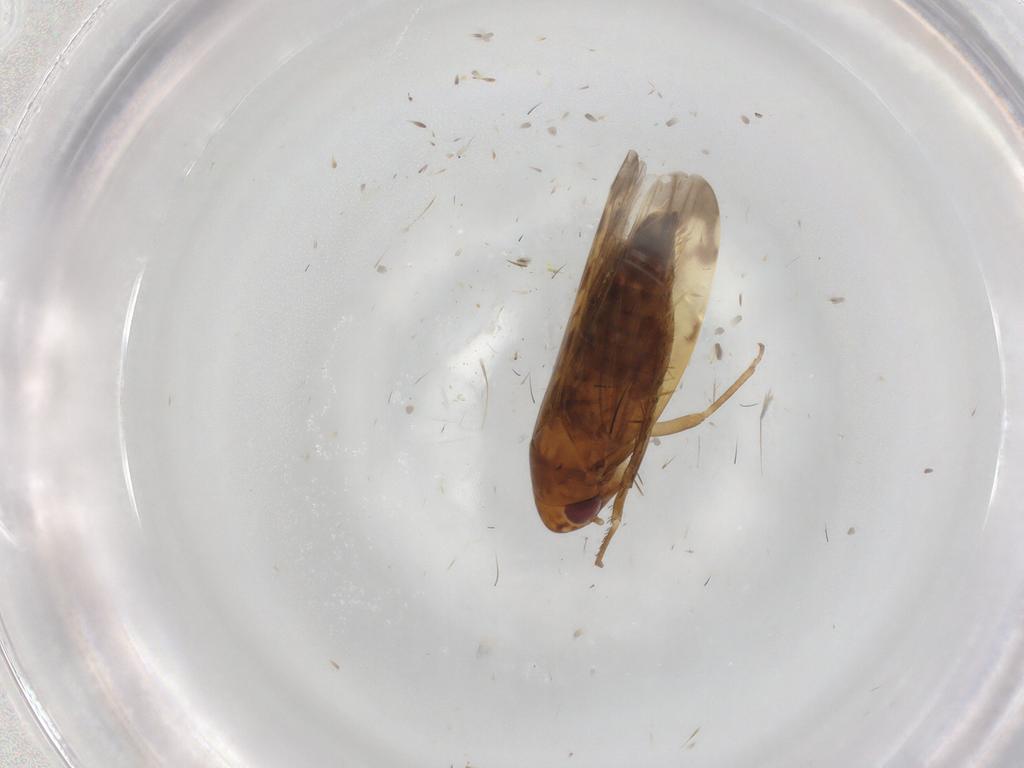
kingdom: Animalia
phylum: Arthropoda
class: Insecta
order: Hemiptera
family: Cicadellidae
